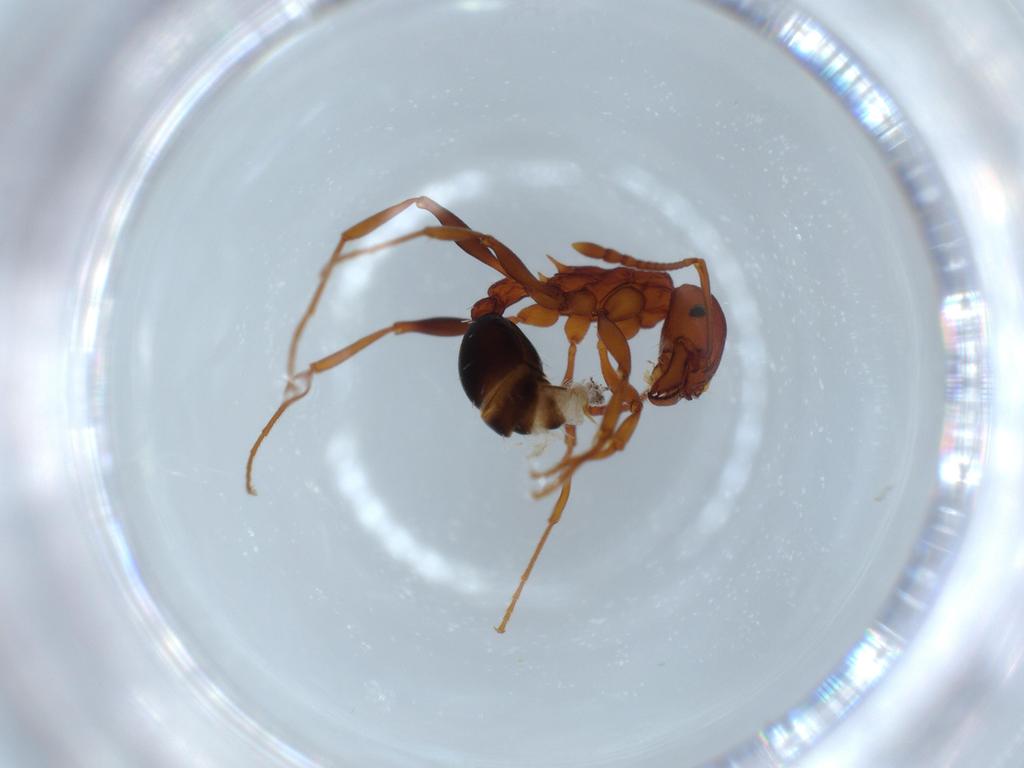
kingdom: Animalia
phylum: Arthropoda
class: Insecta
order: Hymenoptera
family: Formicidae
